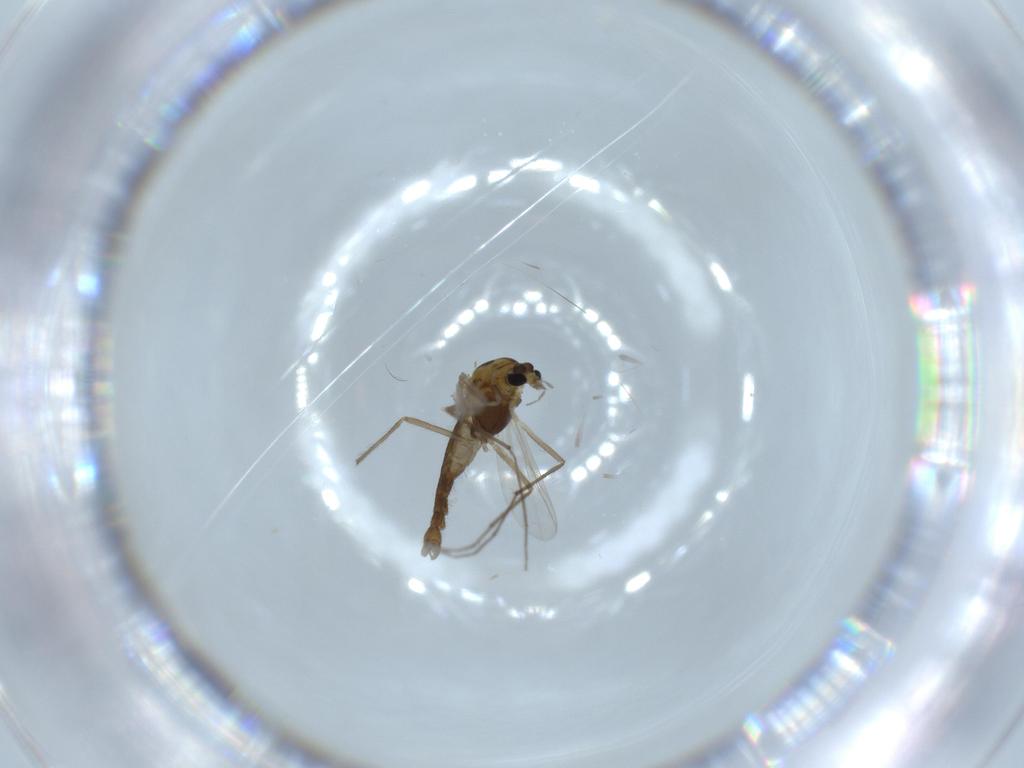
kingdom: Animalia
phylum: Arthropoda
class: Insecta
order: Diptera
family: Chironomidae
